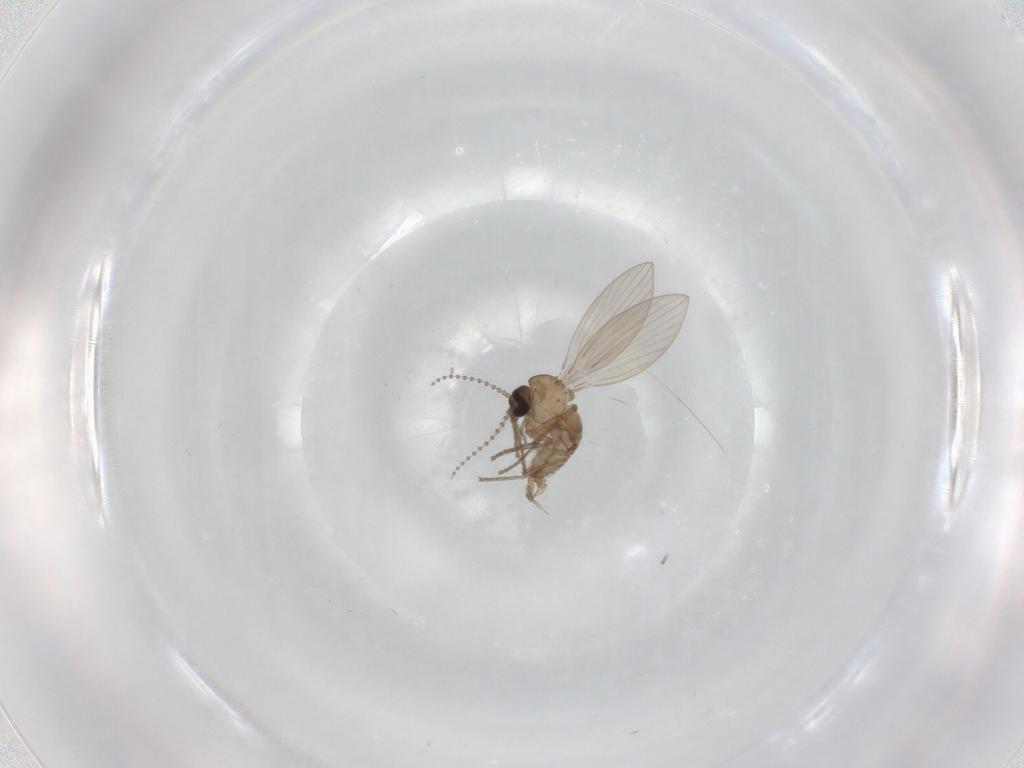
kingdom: Animalia
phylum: Arthropoda
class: Insecta
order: Diptera
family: Psychodidae
